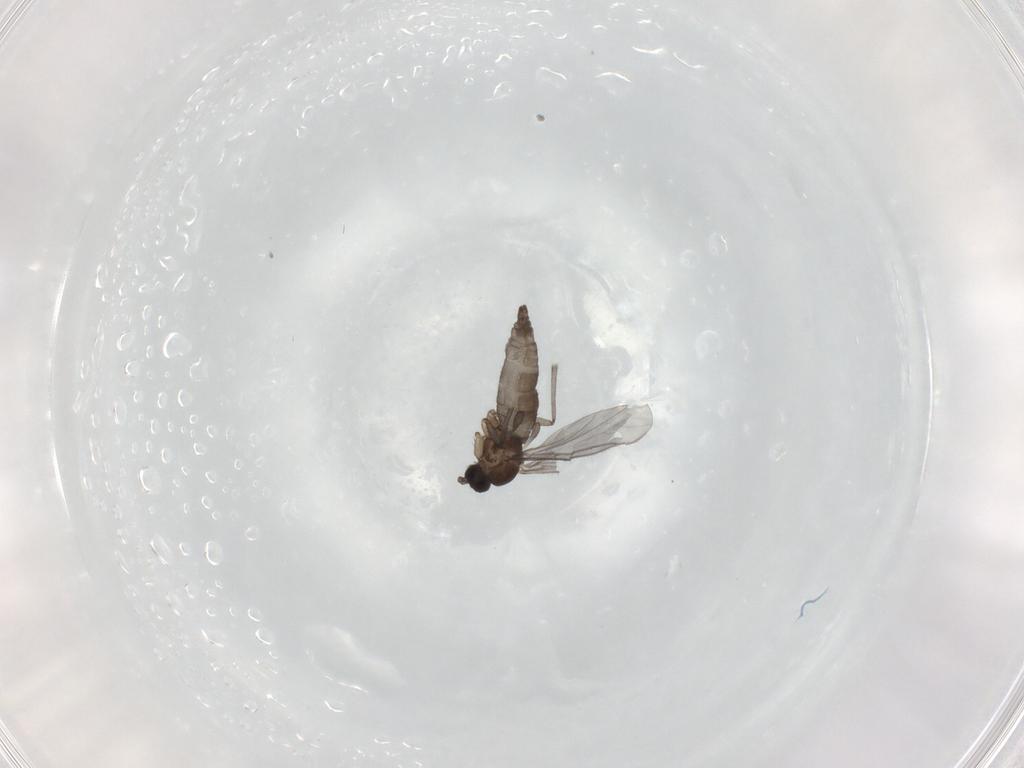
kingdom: Animalia
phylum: Arthropoda
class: Insecta
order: Diptera
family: Sciaridae
